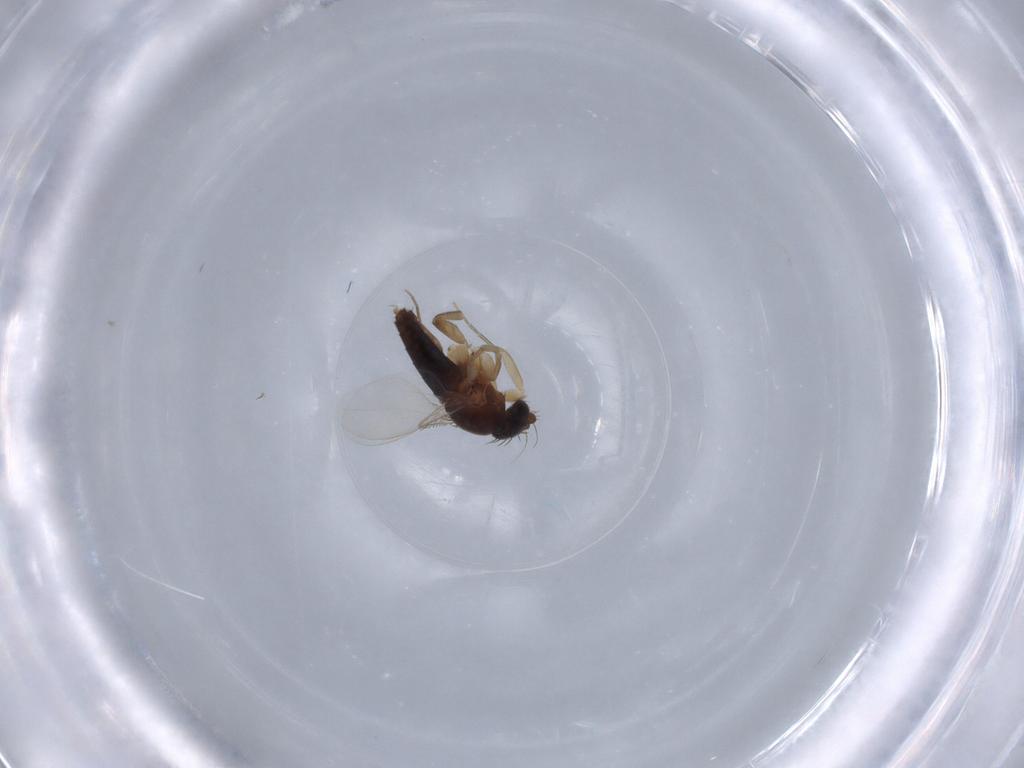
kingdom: Animalia
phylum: Arthropoda
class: Insecta
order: Diptera
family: Phoridae
